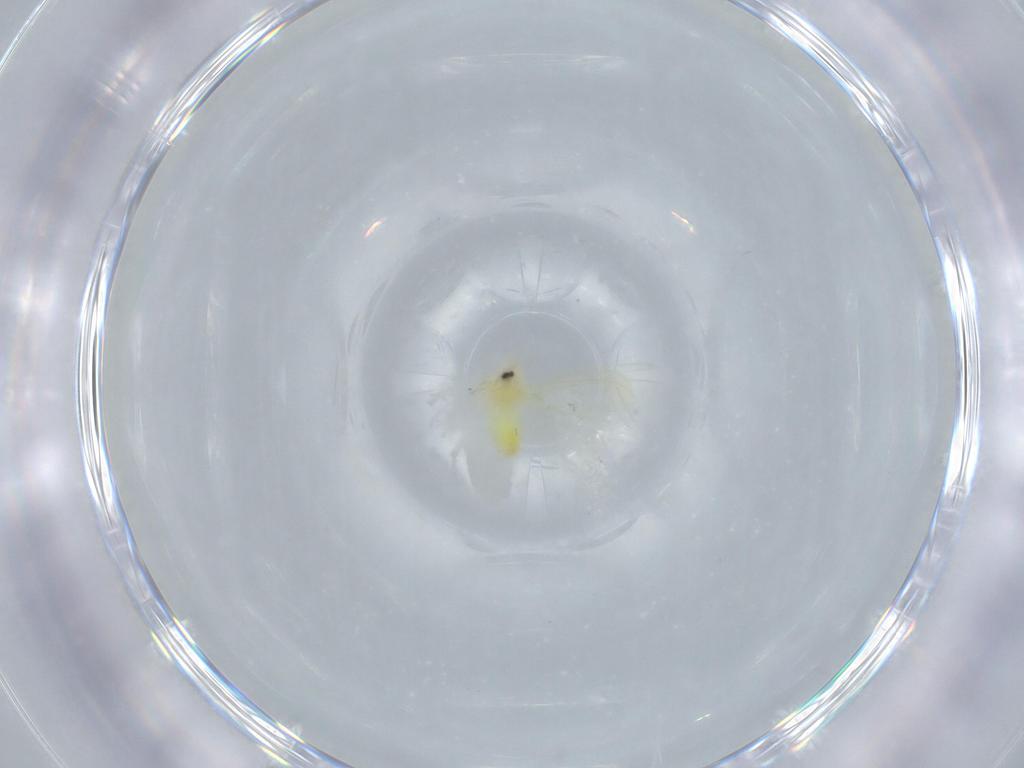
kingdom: Animalia
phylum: Arthropoda
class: Insecta
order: Hemiptera
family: Aleyrodidae
